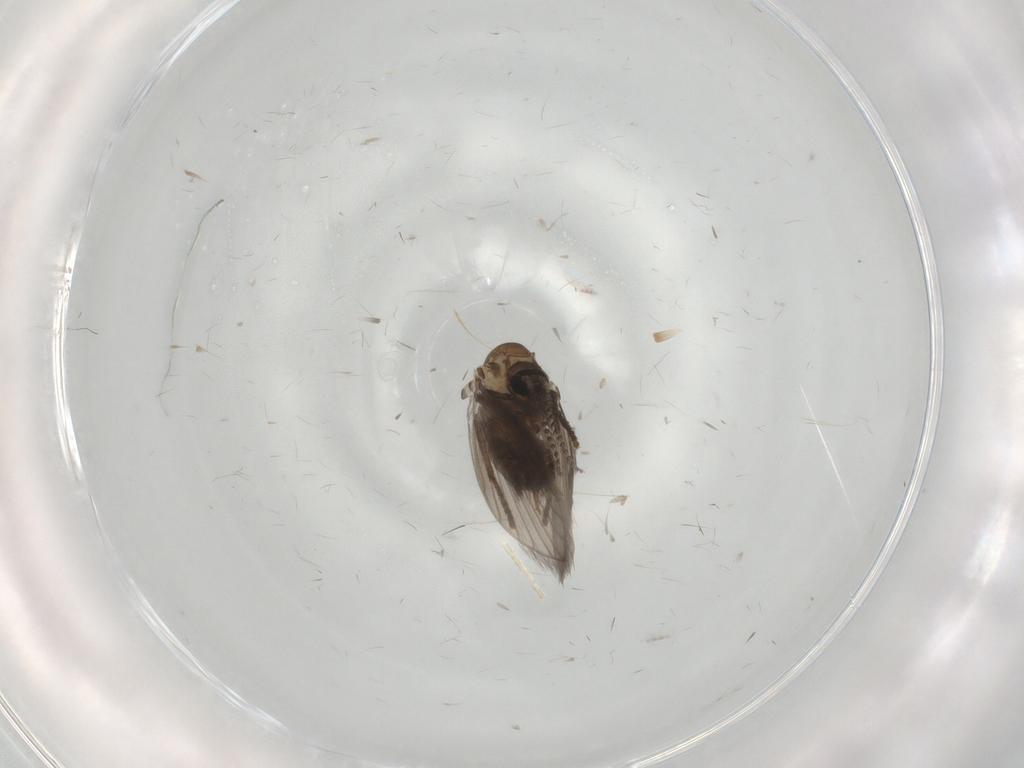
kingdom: Animalia
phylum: Arthropoda
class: Insecta
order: Diptera
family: Psychodidae
